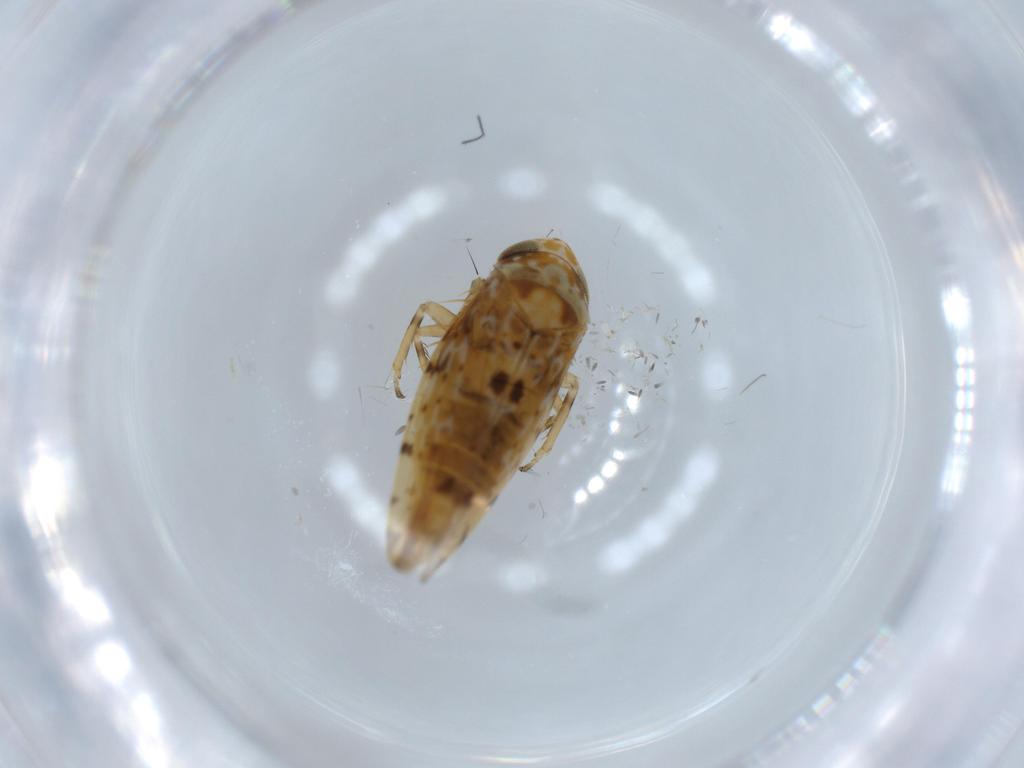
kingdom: Animalia
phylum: Arthropoda
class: Insecta
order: Hemiptera
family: Cicadellidae
